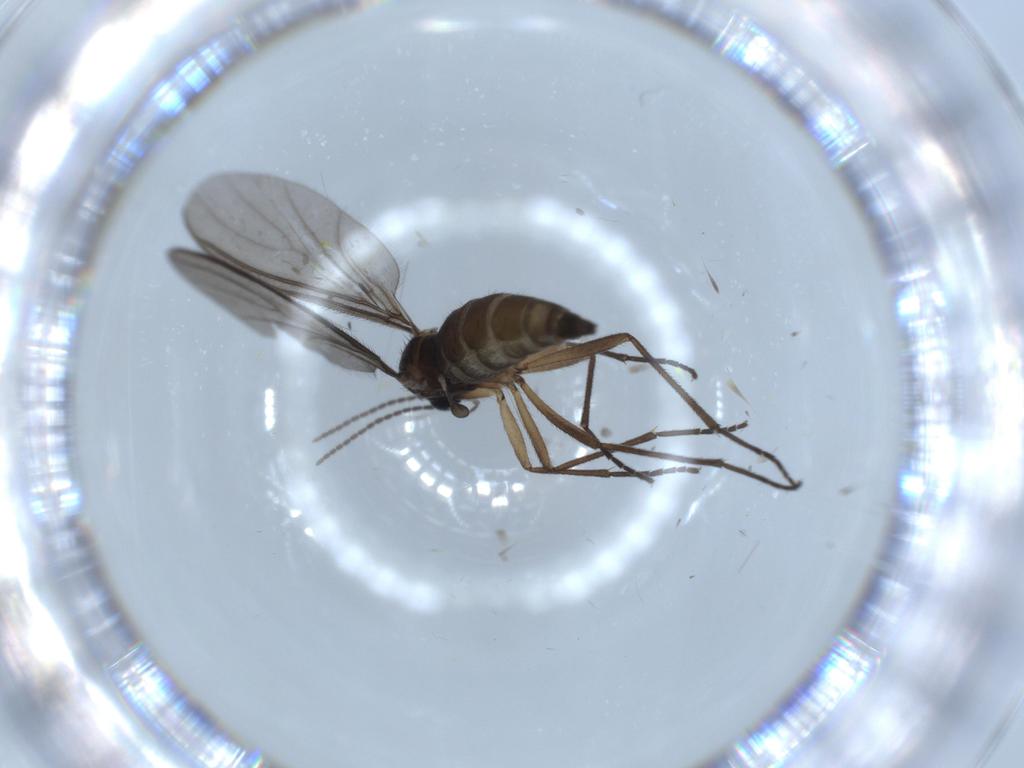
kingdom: Animalia
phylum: Arthropoda
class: Insecta
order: Diptera
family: Sciaridae
